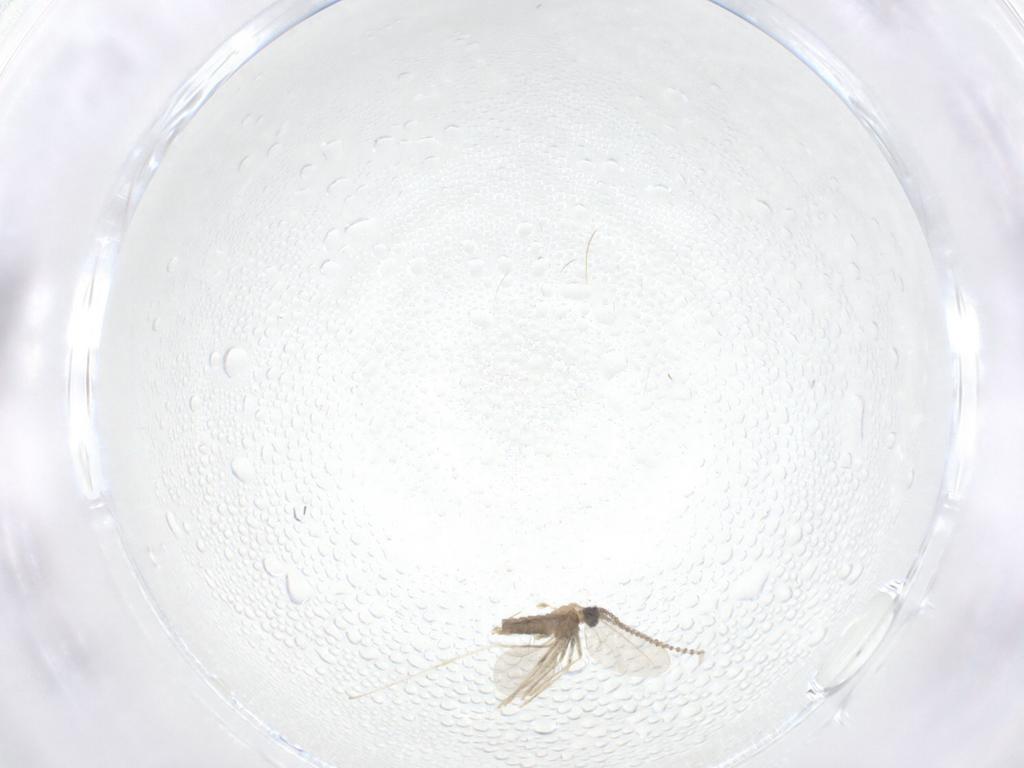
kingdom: Animalia
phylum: Arthropoda
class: Insecta
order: Diptera
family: Cecidomyiidae
